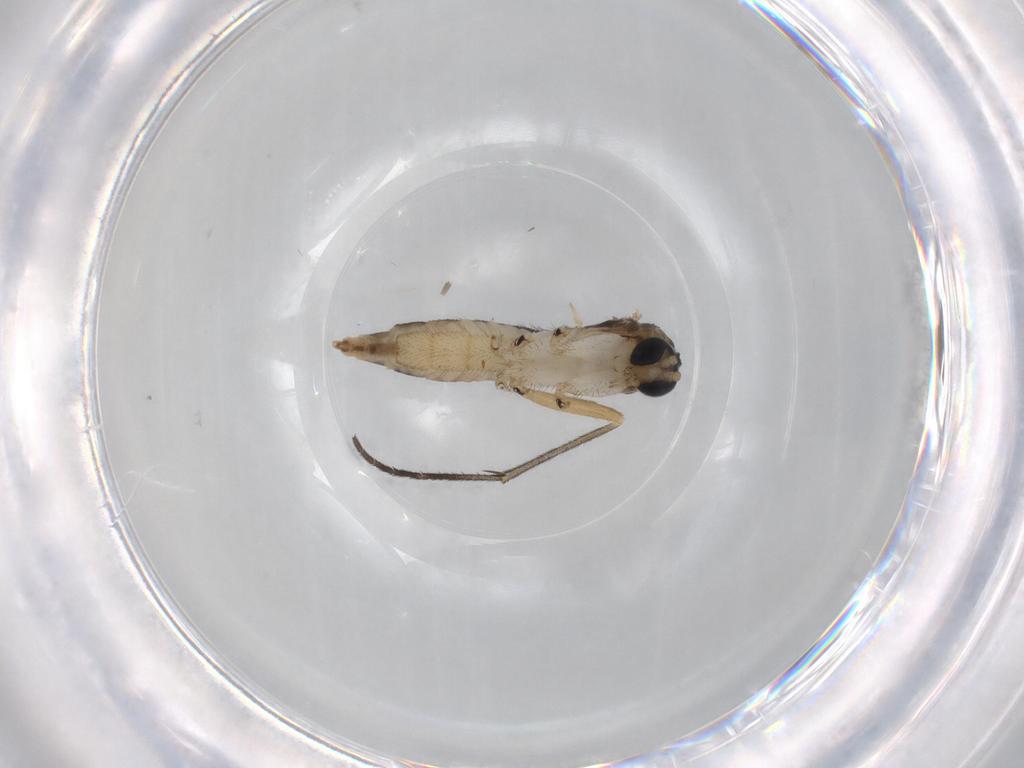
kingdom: Animalia
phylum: Arthropoda
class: Insecta
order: Diptera
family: Sciaridae
